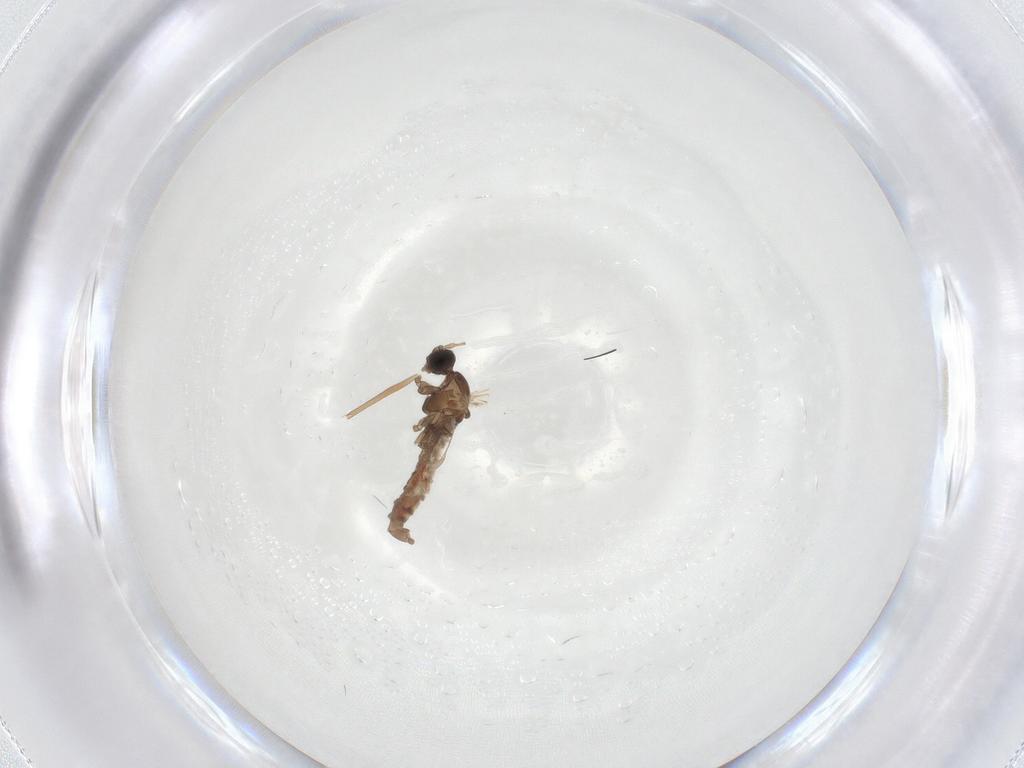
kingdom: Animalia
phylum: Arthropoda
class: Insecta
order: Diptera
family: Cecidomyiidae
